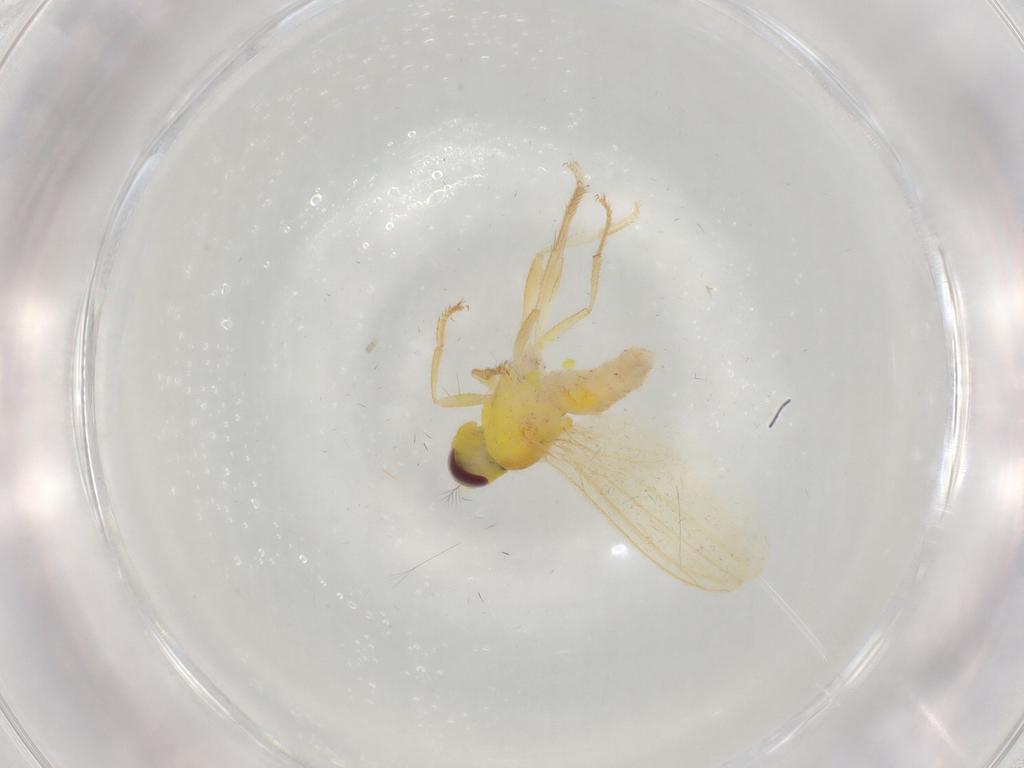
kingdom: Animalia
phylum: Arthropoda
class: Insecta
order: Diptera
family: Periscelididae
